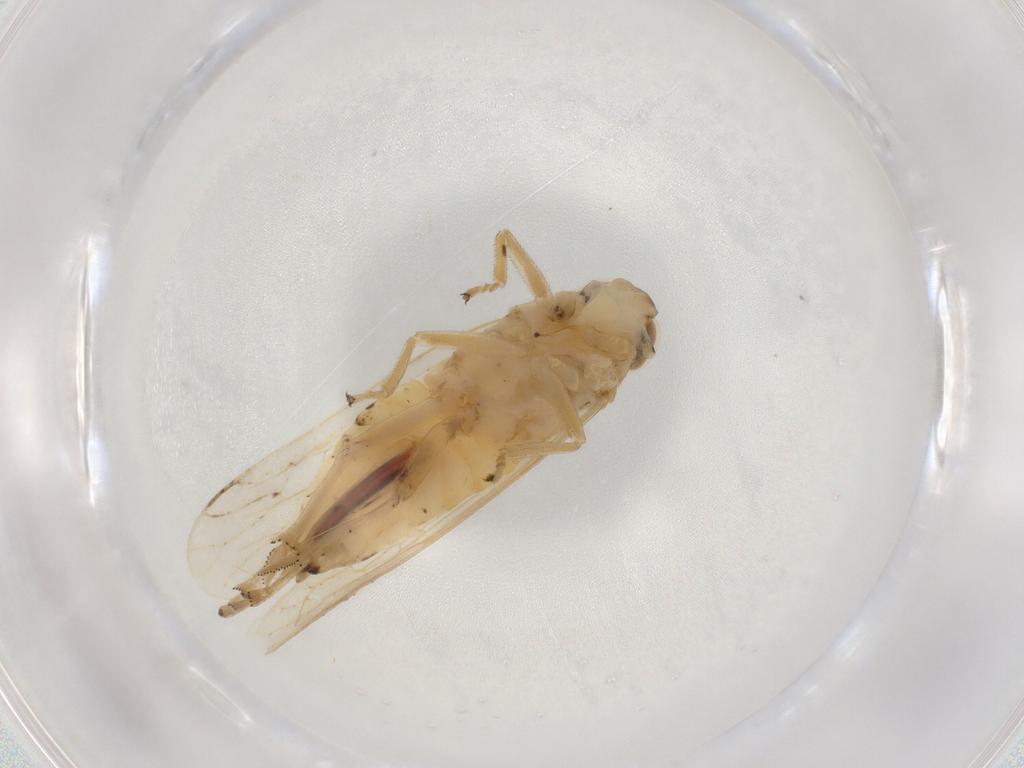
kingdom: Animalia
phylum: Arthropoda
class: Insecta
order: Hemiptera
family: Delphacidae
